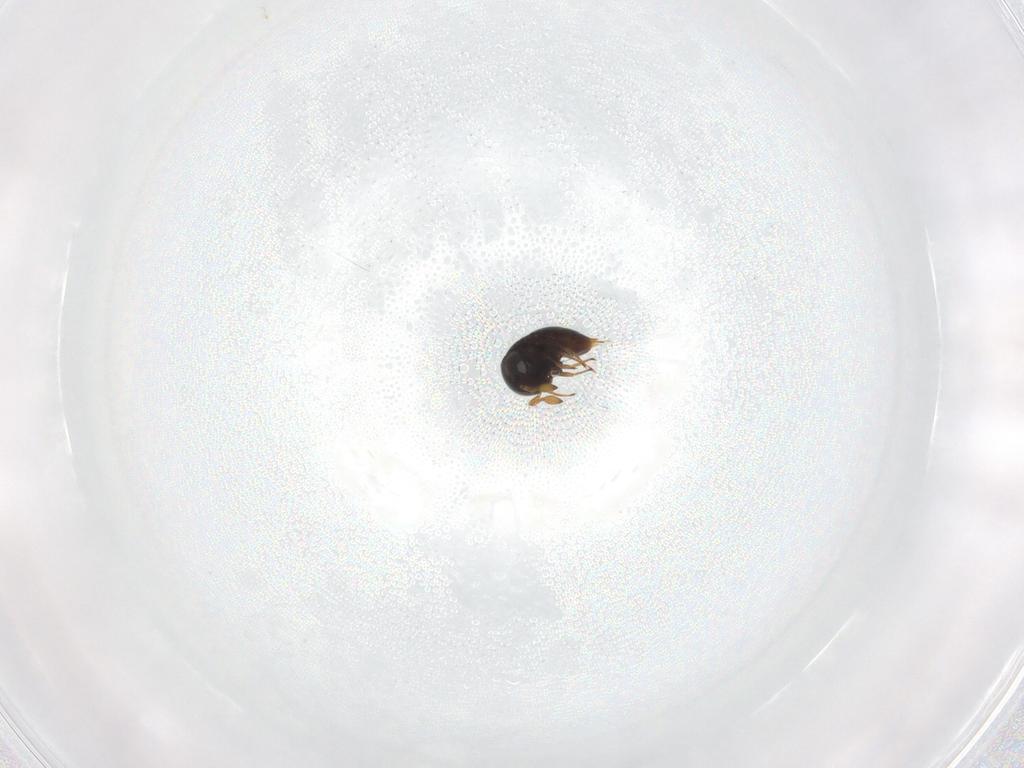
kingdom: Animalia
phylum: Arthropoda
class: Insecta
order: Hymenoptera
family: Scelionidae
